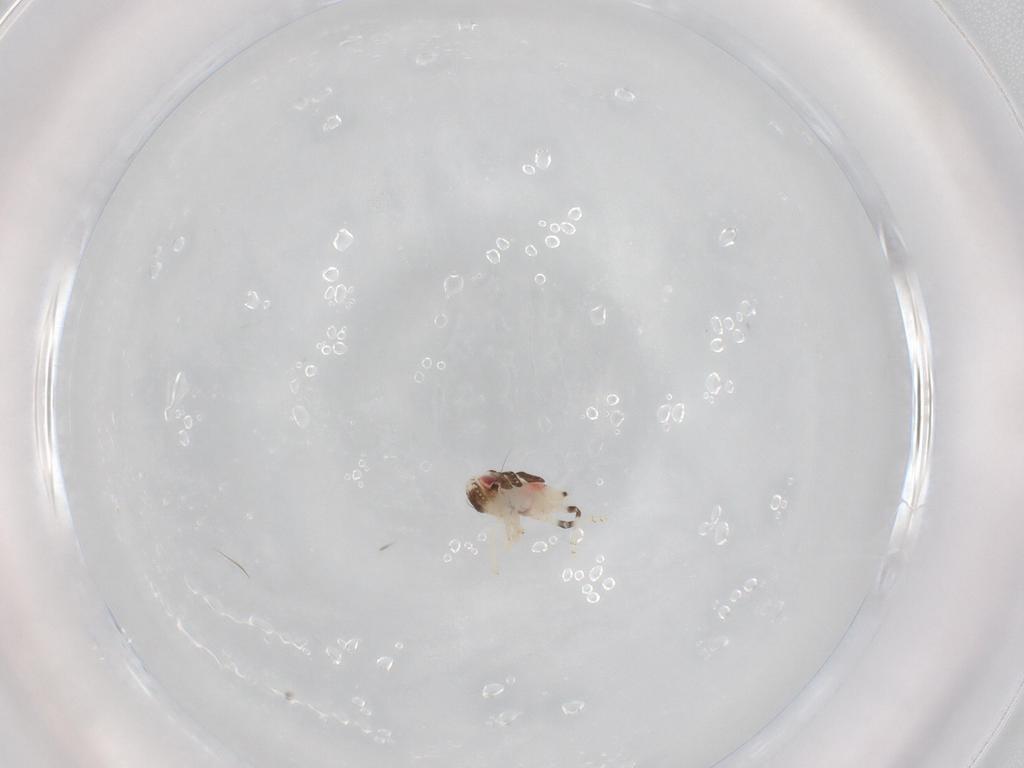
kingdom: Animalia
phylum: Arthropoda
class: Insecta
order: Hemiptera
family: Nogodinidae
